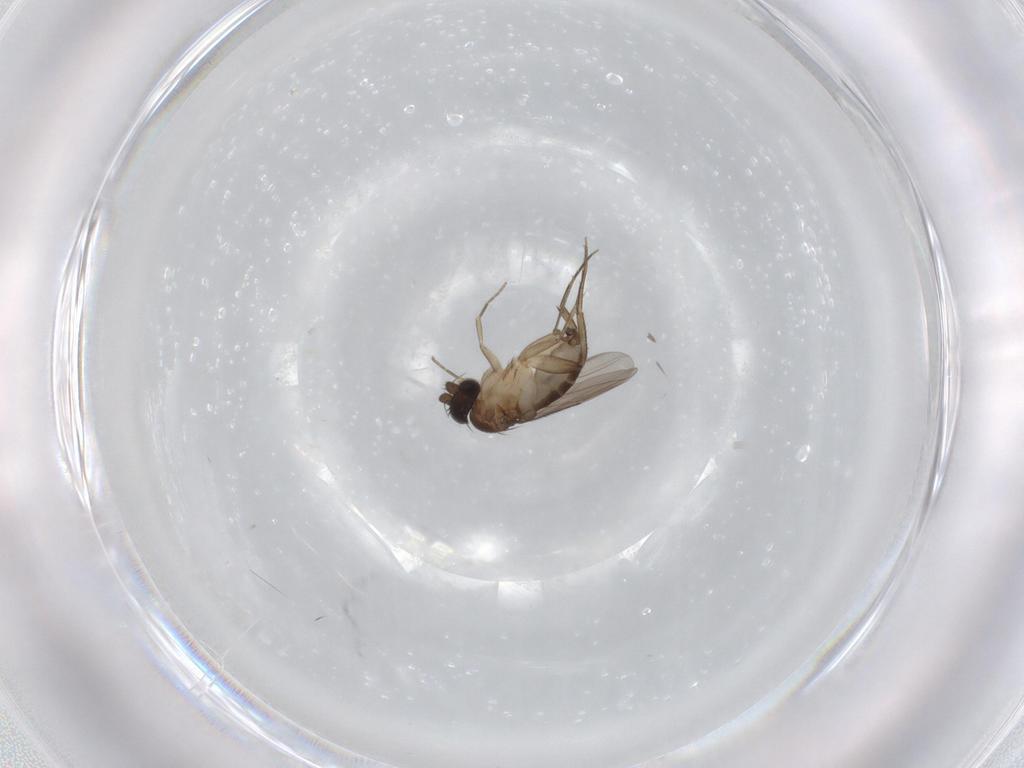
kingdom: Animalia
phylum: Arthropoda
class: Insecta
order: Diptera
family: Phoridae
